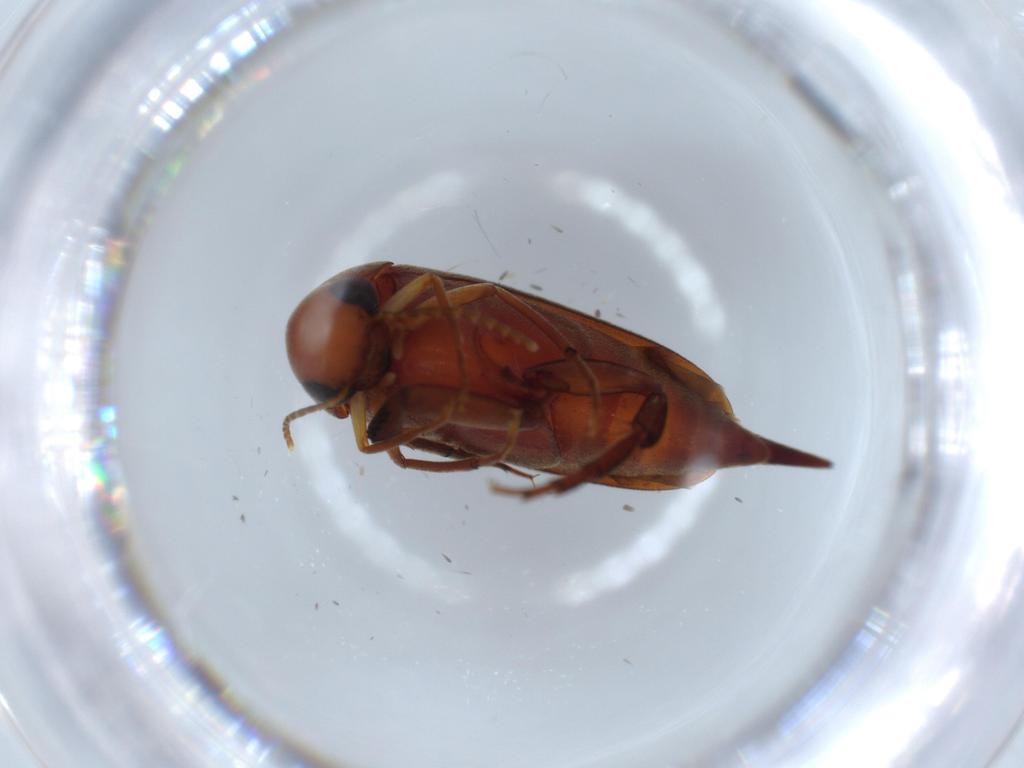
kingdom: Animalia
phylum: Arthropoda
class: Insecta
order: Coleoptera
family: Mordellidae
